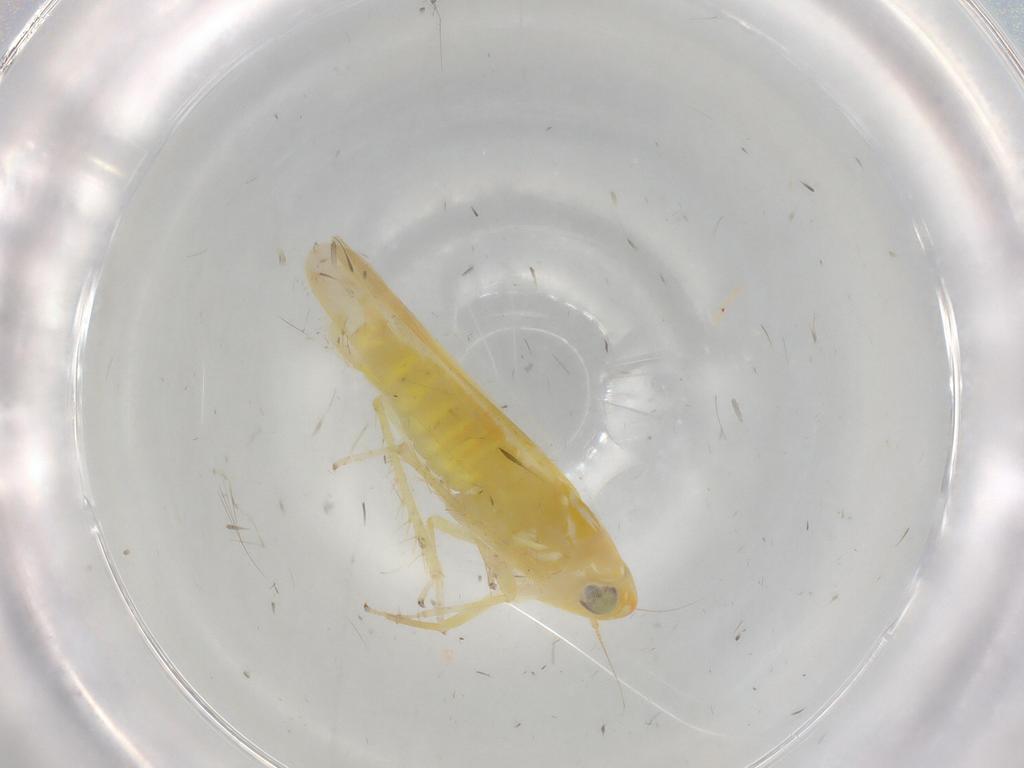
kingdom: Animalia
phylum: Arthropoda
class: Insecta
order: Hemiptera
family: Cicadellidae
